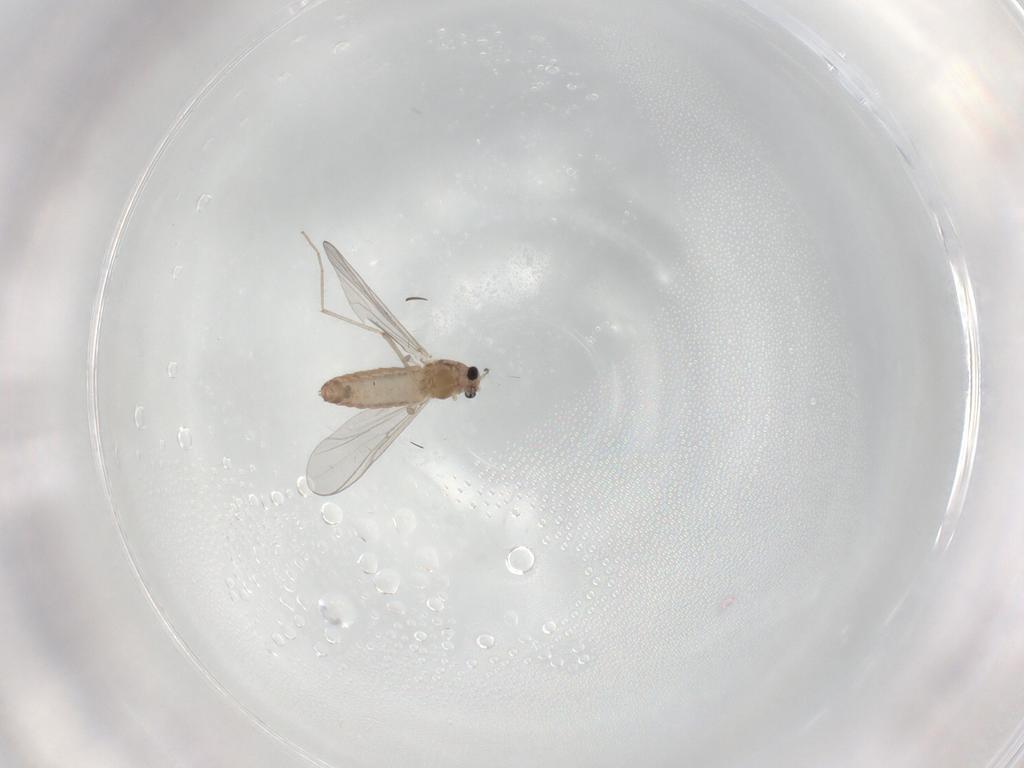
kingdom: Animalia
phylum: Arthropoda
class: Insecta
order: Diptera
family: Chironomidae
